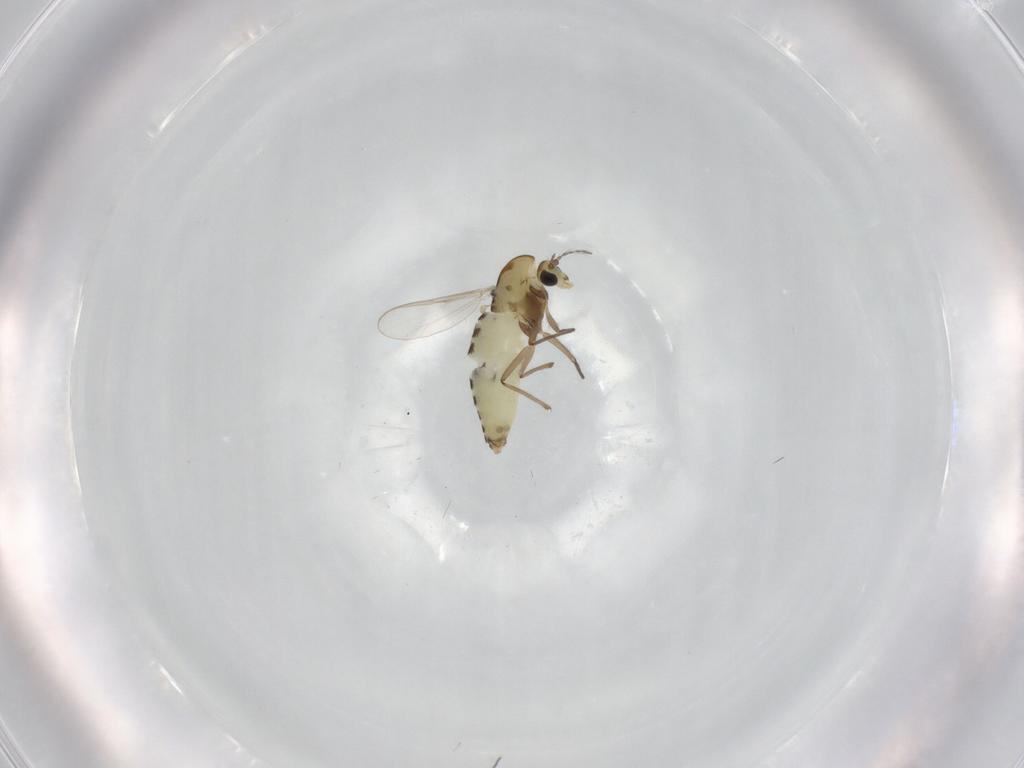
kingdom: Animalia
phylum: Arthropoda
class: Insecta
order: Diptera
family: Chironomidae
